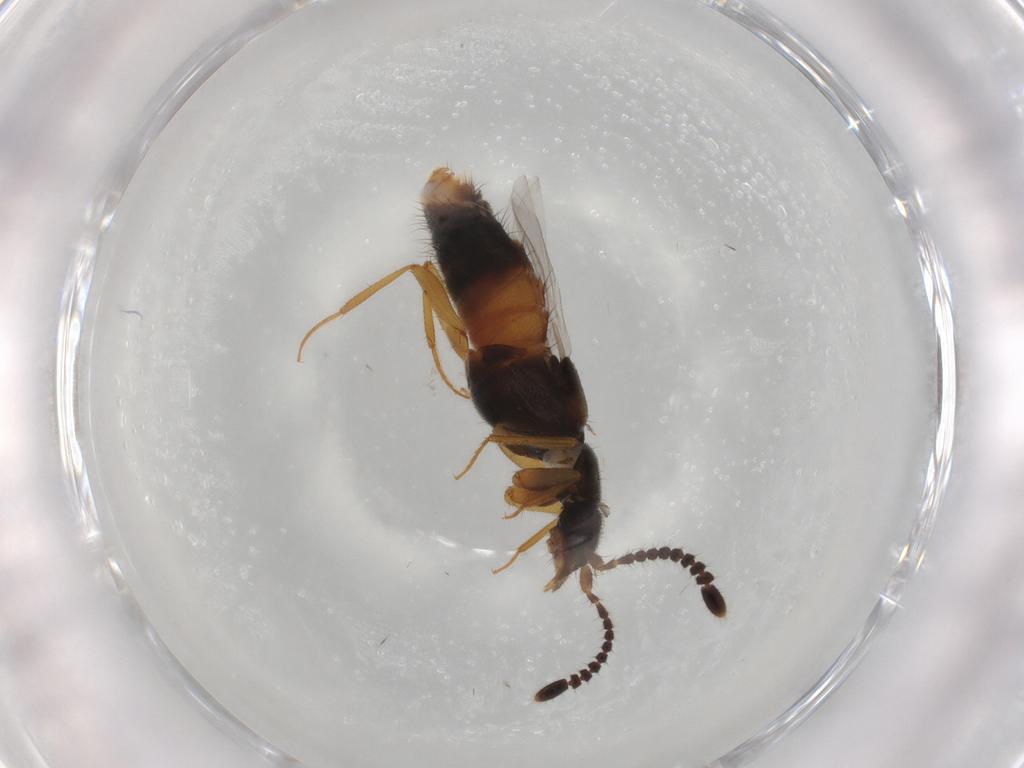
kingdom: Animalia
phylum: Arthropoda
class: Insecta
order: Coleoptera
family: Staphylinidae
